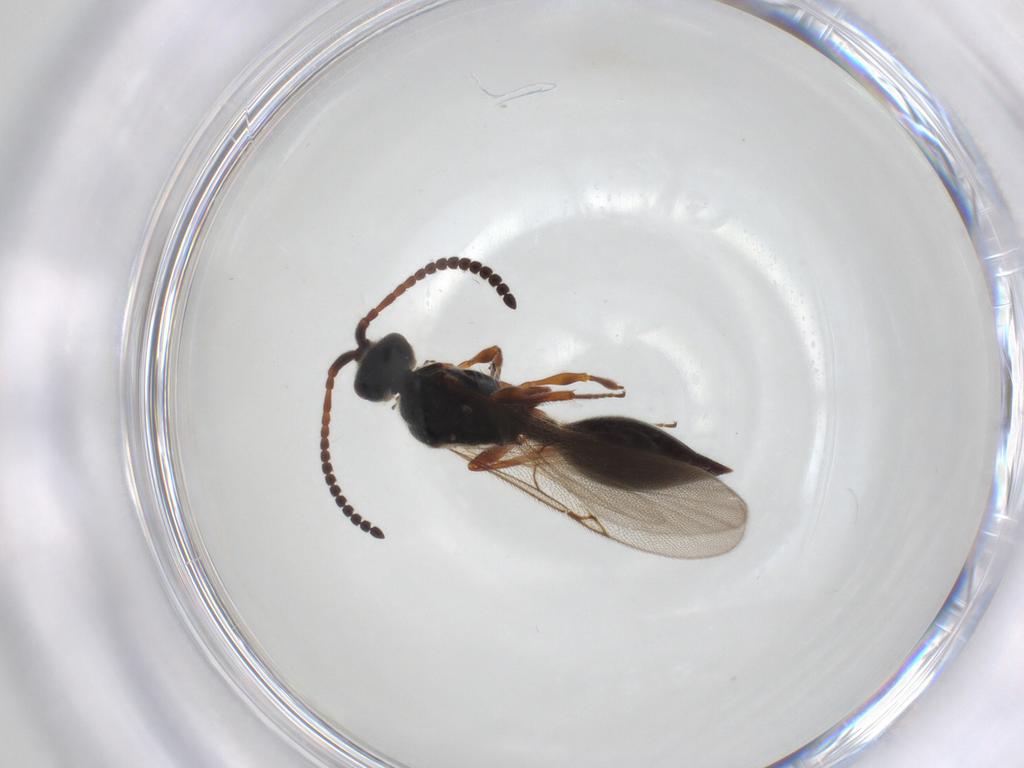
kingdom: Animalia
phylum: Arthropoda
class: Insecta
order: Hymenoptera
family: Diapriidae
